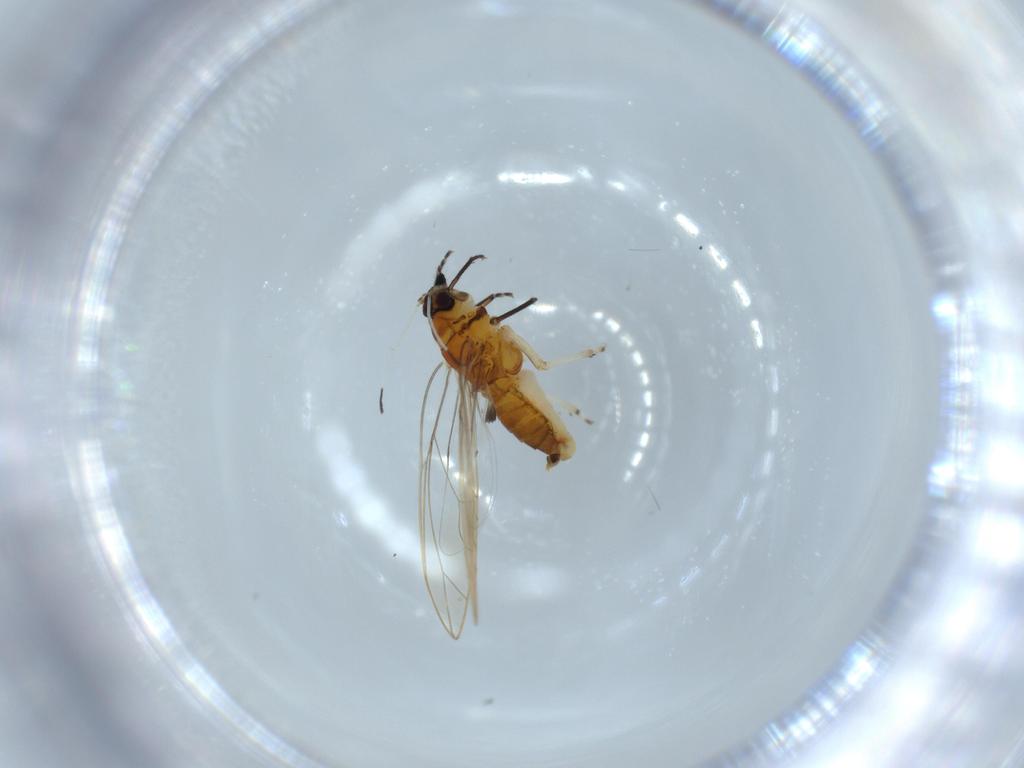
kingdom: Animalia
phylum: Arthropoda
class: Insecta
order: Hemiptera
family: Triozidae
